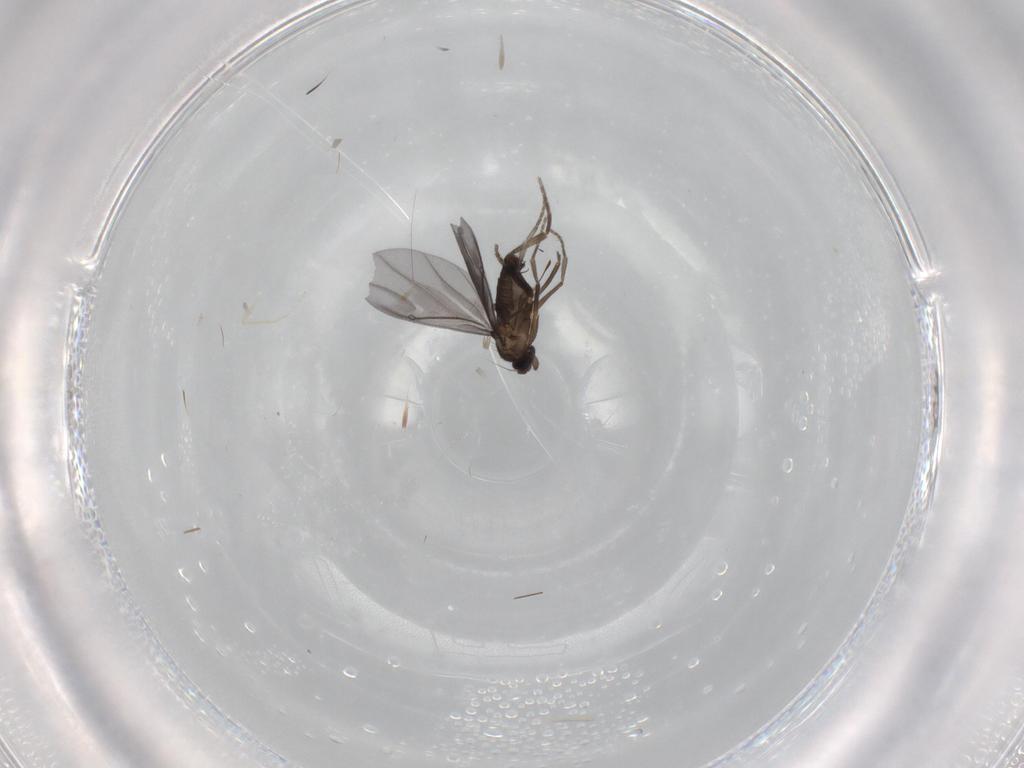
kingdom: Animalia
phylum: Arthropoda
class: Insecta
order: Diptera
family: Phoridae
